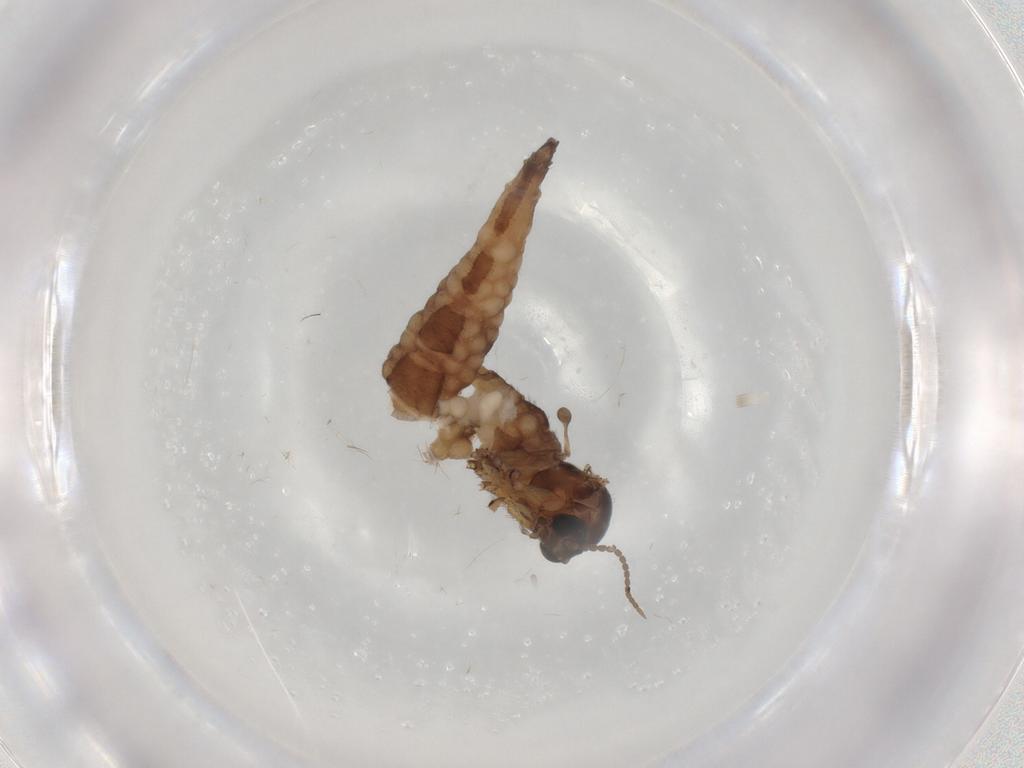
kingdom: Animalia
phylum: Arthropoda
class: Insecta
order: Diptera
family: Sciaridae
